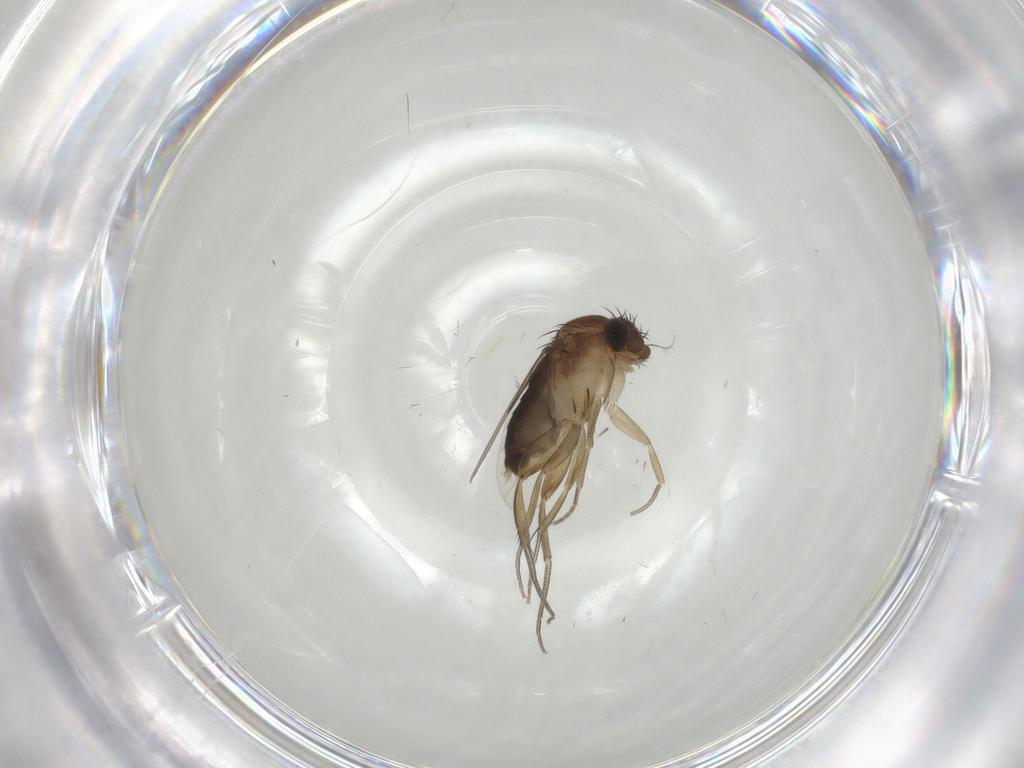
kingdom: Animalia
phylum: Arthropoda
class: Insecta
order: Diptera
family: Phoridae
